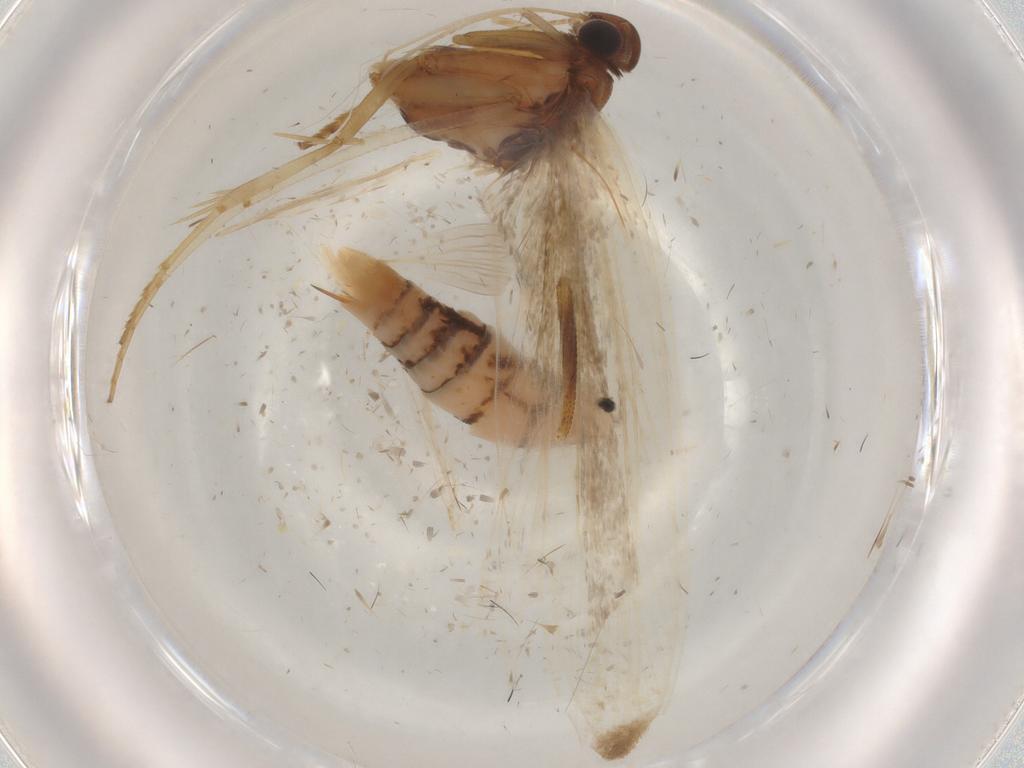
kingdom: Animalia
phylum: Arthropoda
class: Insecta
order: Lepidoptera
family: Gelechiidae
